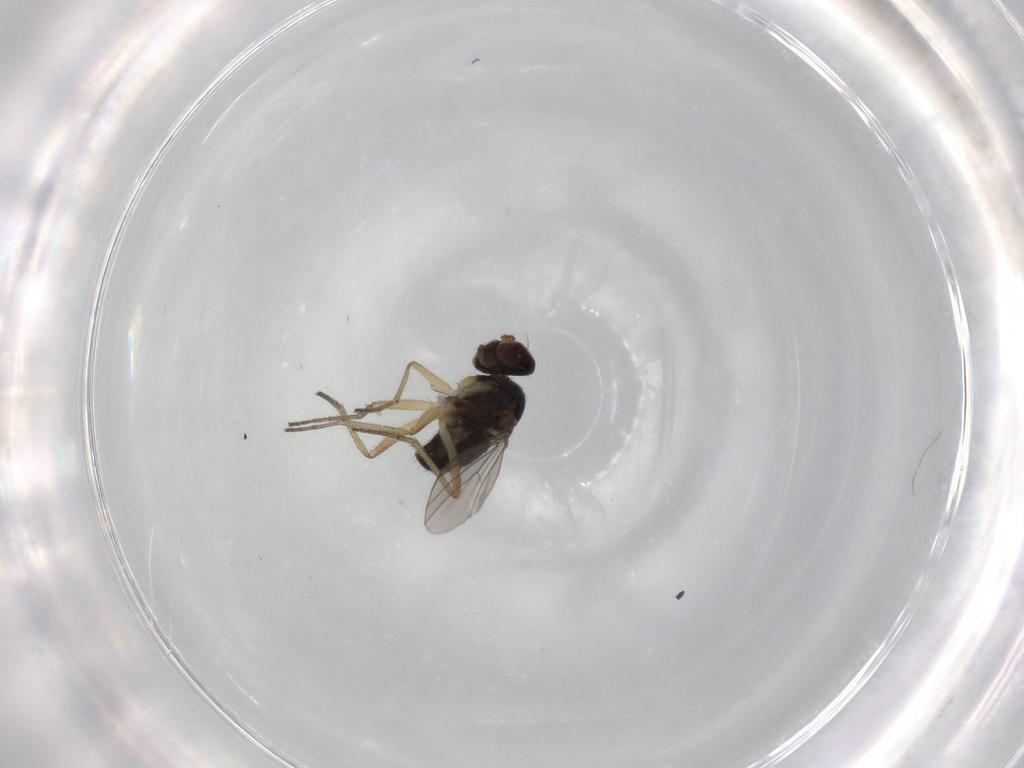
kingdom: Animalia
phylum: Arthropoda
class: Insecta
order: Diptera
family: Dolichopodidae
